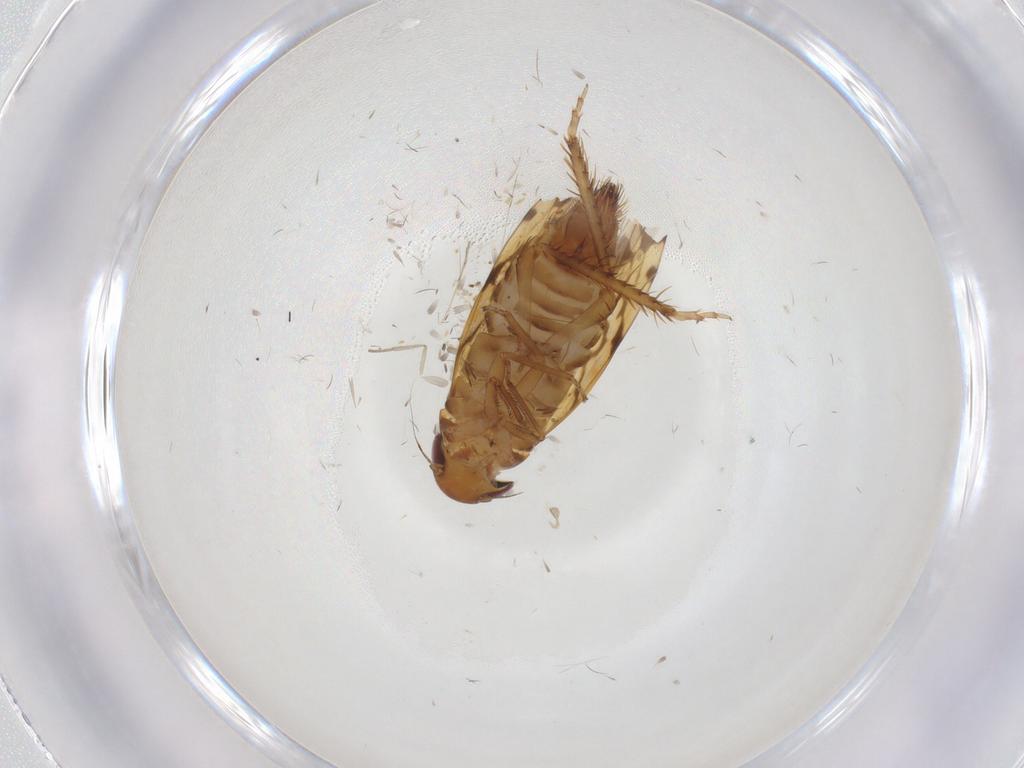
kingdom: Animalia
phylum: Arthropoda
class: Insecta
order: Hemiptera
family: Cicadellidae
